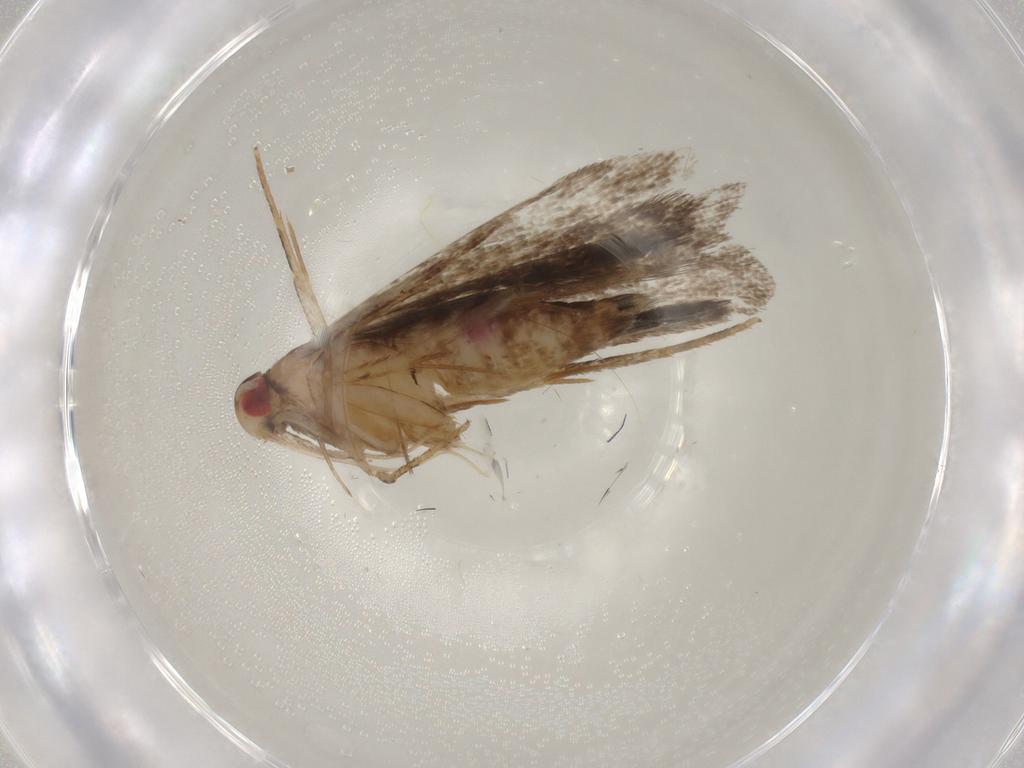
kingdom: Animalia
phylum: Arthropoda
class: Insecta
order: Lepidoptera
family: Gelechiidae
